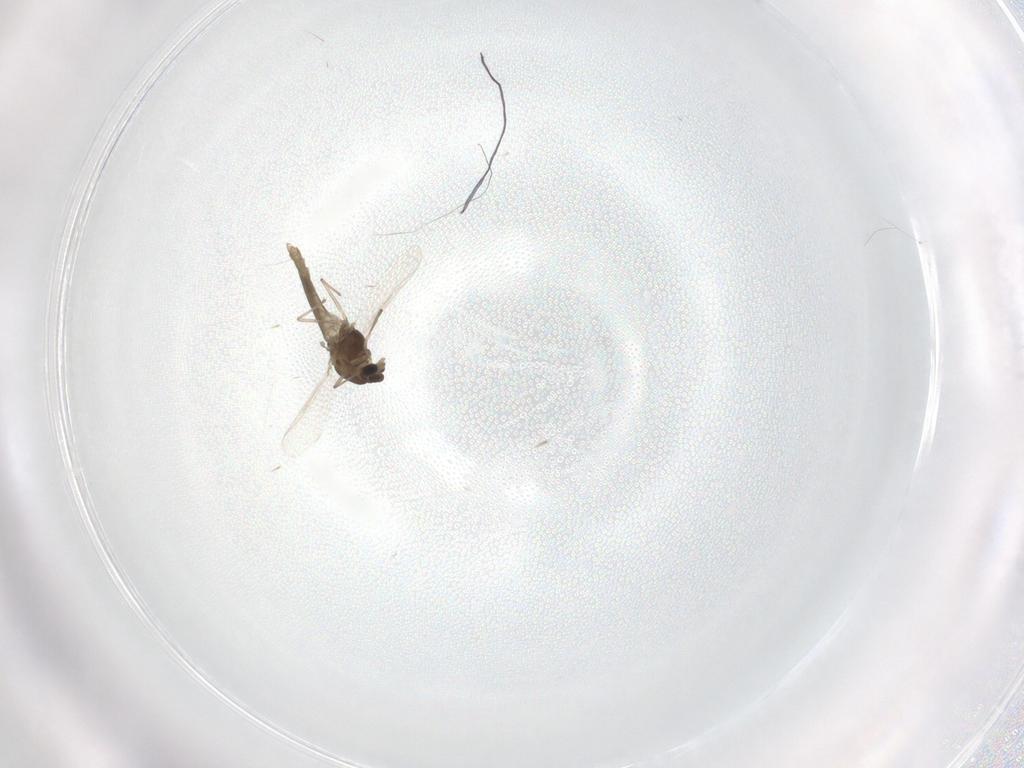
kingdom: Animalia
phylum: Arthropoda
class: Insecta
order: Diptera
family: Chironomidae
